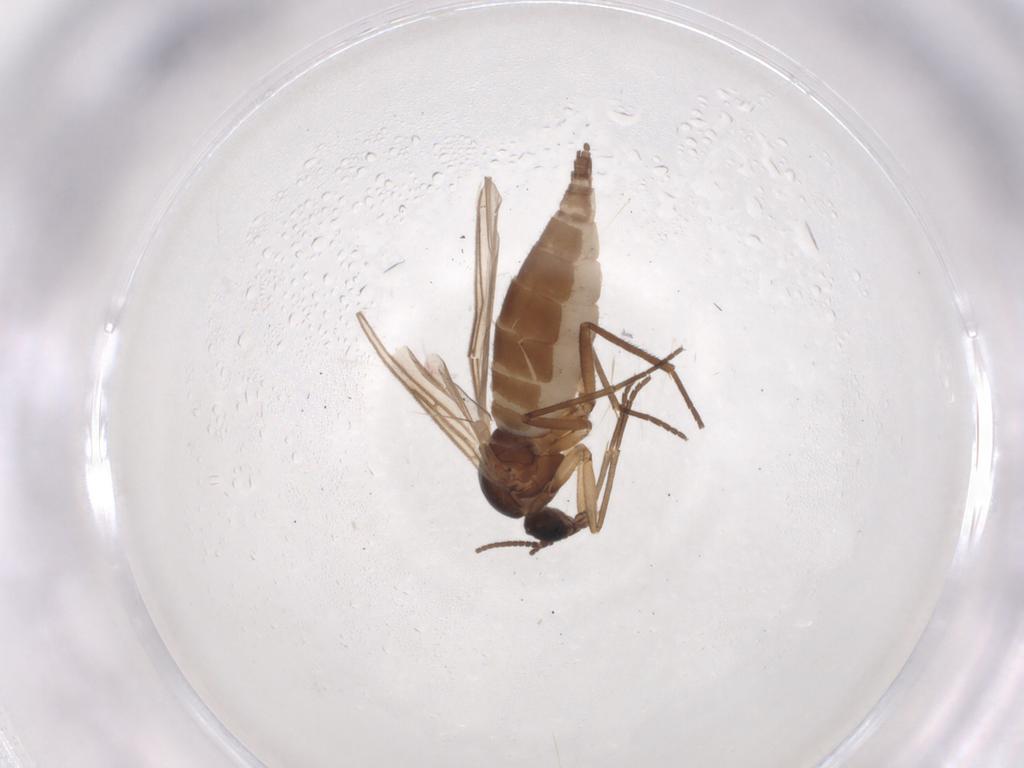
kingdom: Animalia
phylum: Arthropoda
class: Insecta
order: Diptera
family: Sciaridae
